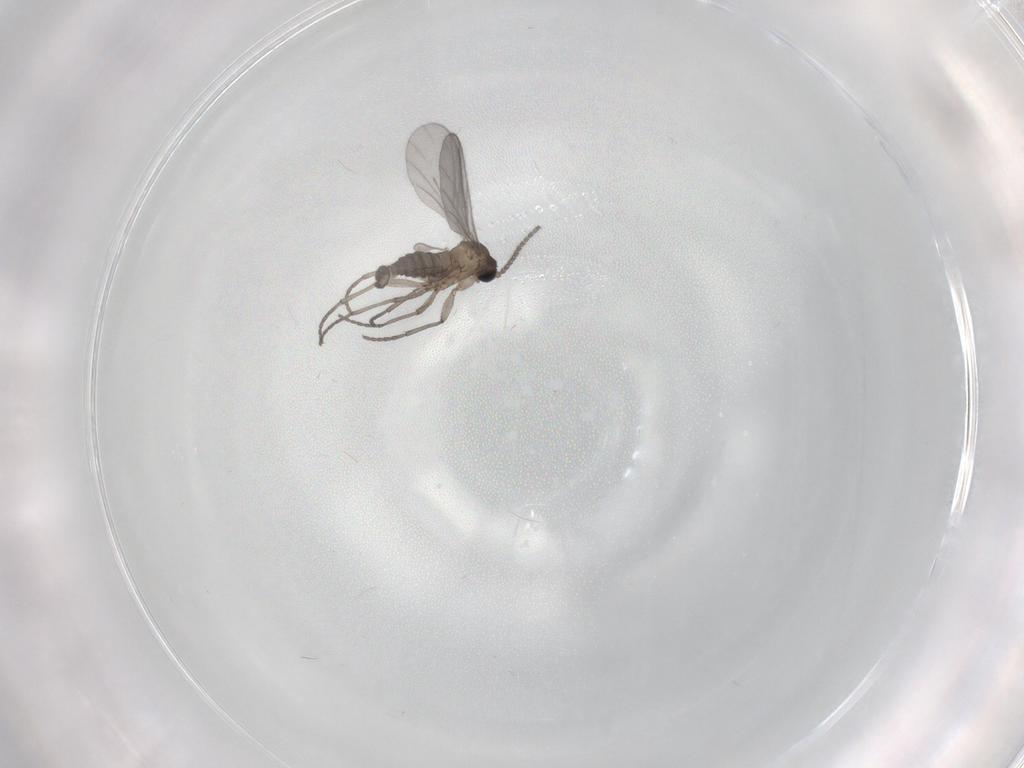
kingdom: Animalia
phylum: Arthropoda
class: Insecta
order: Diptera
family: Sciaridae
